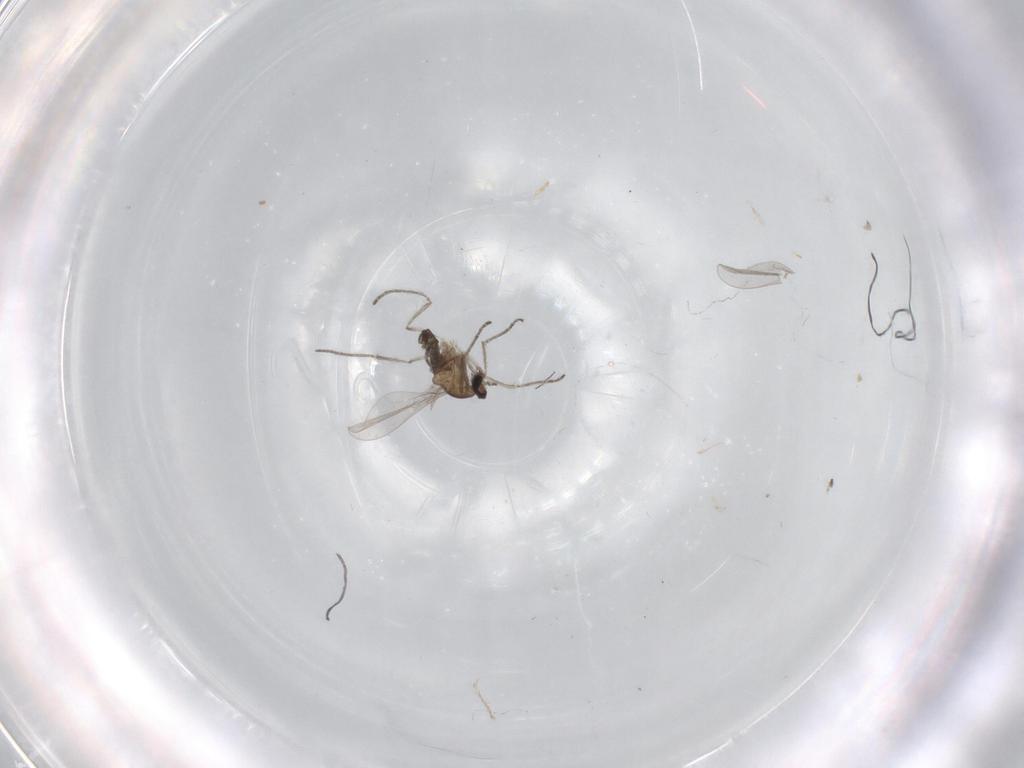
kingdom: Animalia
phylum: Arthropoda
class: Insecta
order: Diptera
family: Cecidomyiidae
